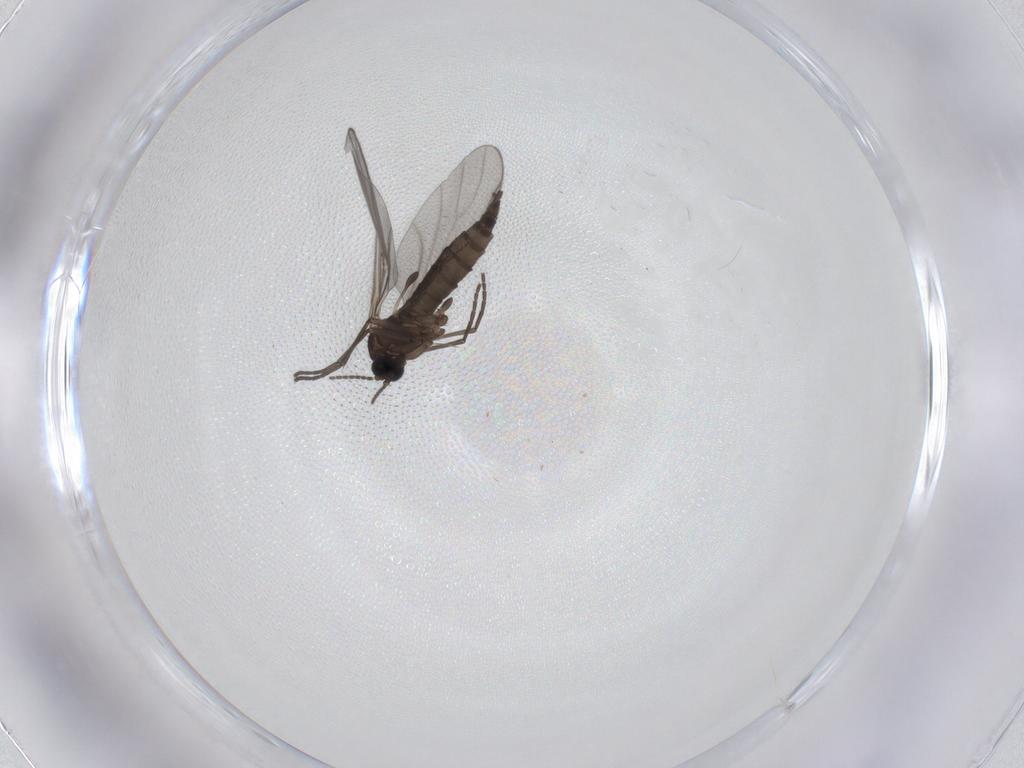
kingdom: Animalia
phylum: Arthropoda
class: Insecta
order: Diptera
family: Sciaridae
